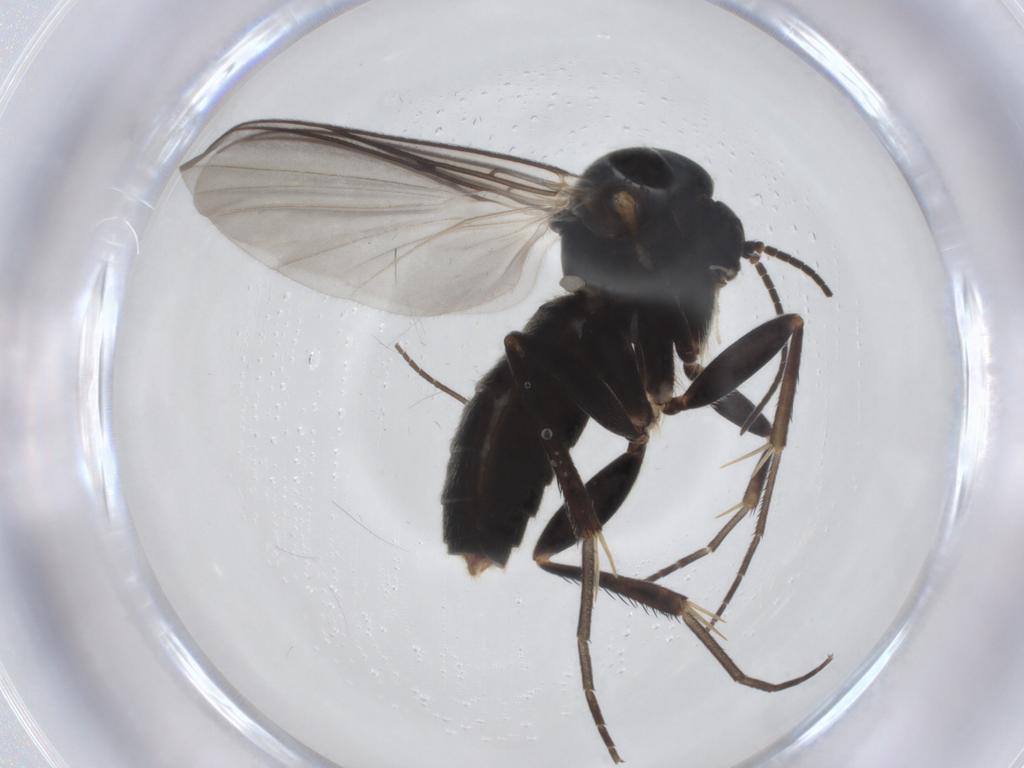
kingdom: Animalia
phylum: Arthropoda
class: Insecta
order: Diptera
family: Mycetophilidae
